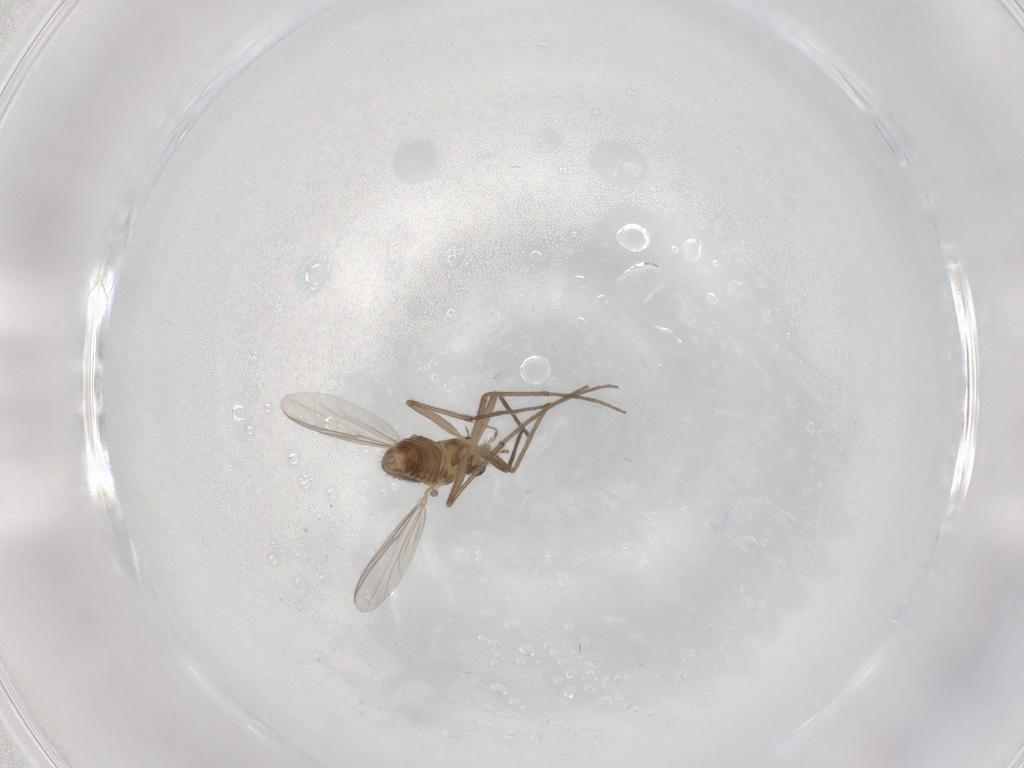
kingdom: Animalia
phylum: Arthropoda
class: Insecta
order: Diptera
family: Chironomidae
